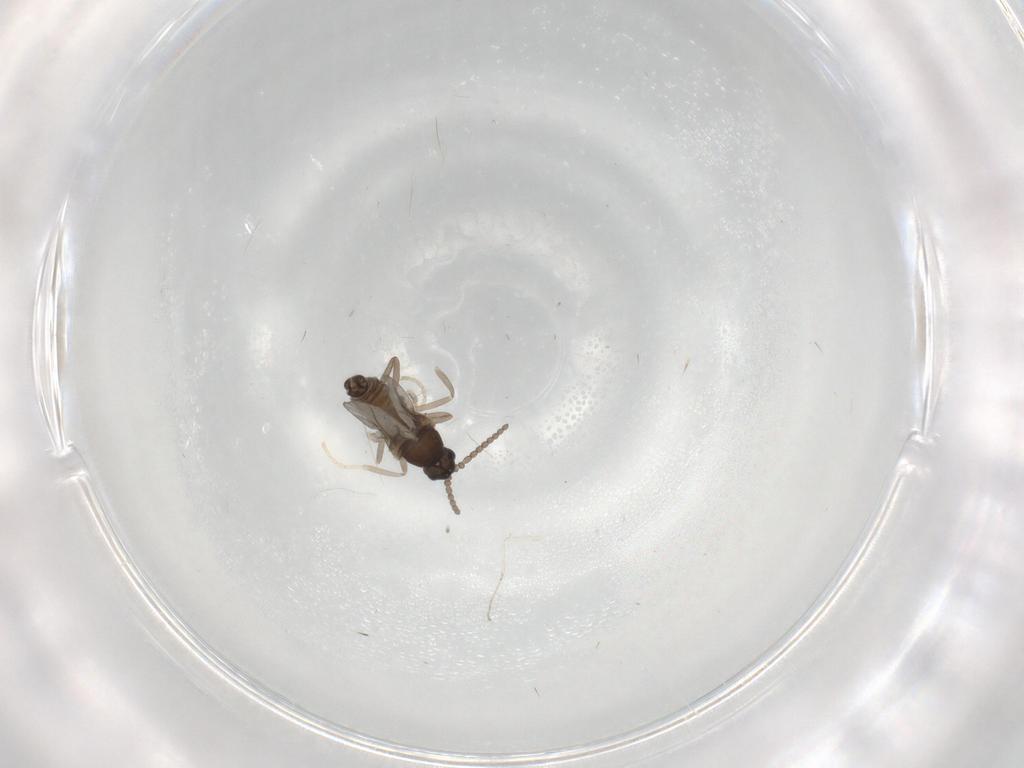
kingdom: Animalia
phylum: Arthropoda
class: Insecta
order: Diptera
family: Cecidomyiidae
